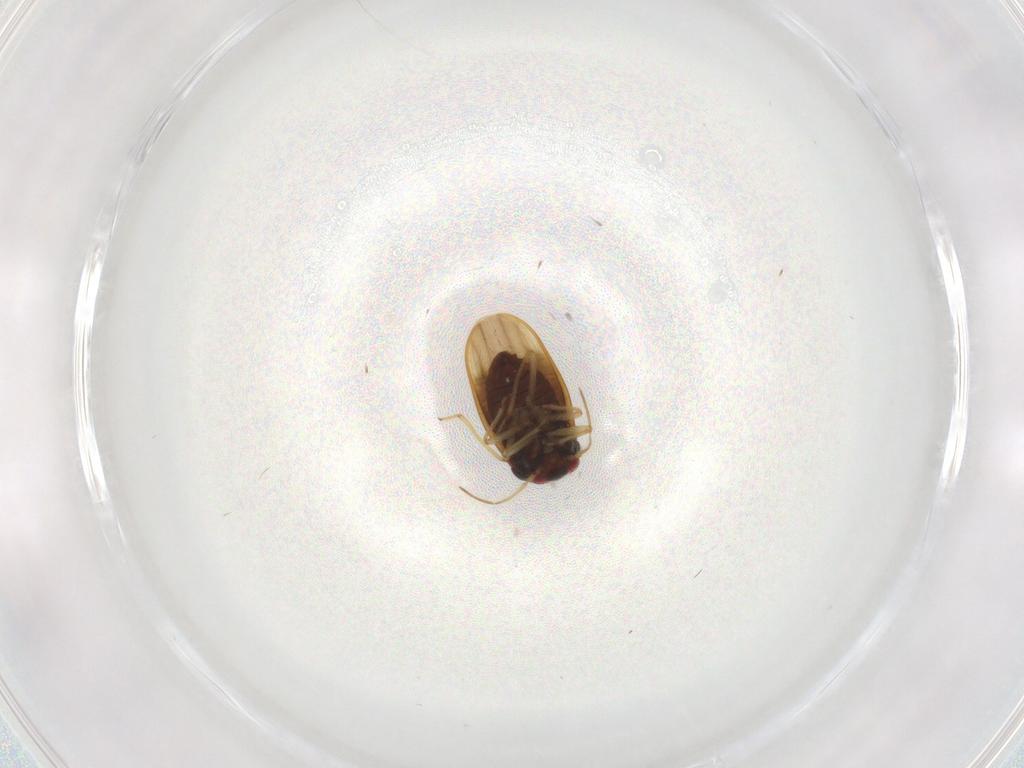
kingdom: Animalia
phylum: Arthropoda
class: Insecta
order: Hemiptera
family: Schizopteridae
